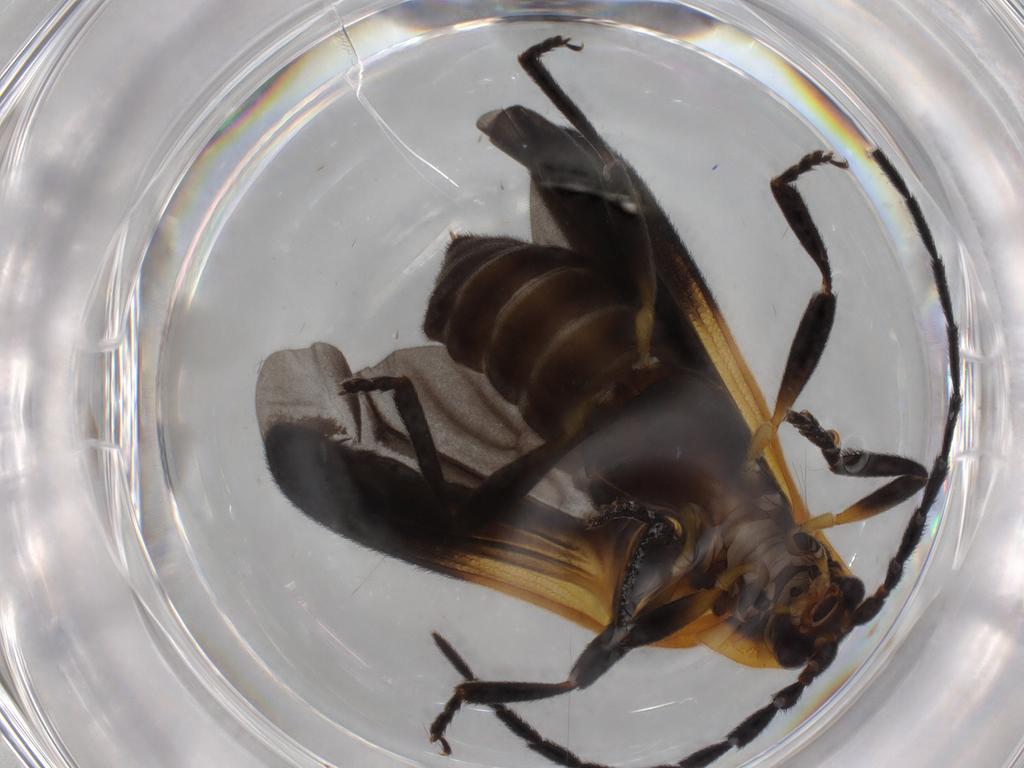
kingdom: Animalia
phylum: Arthropoda
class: Insecta
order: Coleoptera
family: Lycidae
